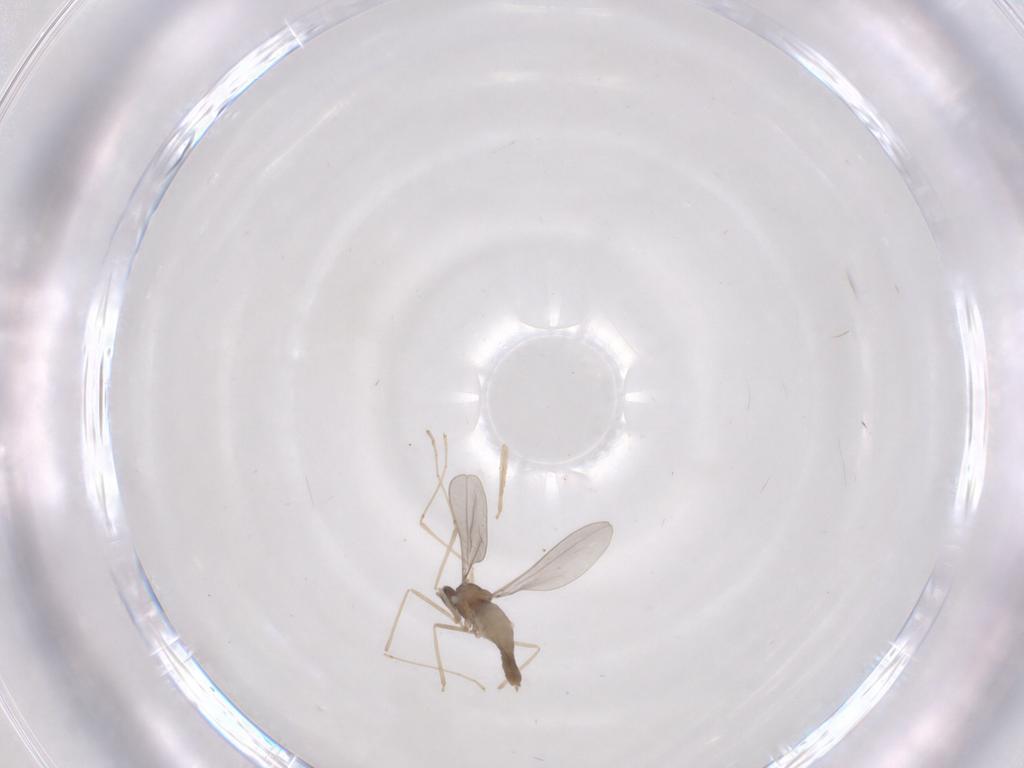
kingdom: Animalia
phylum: Arthropoda
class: Insecta
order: Diptera
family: Chironomidae
